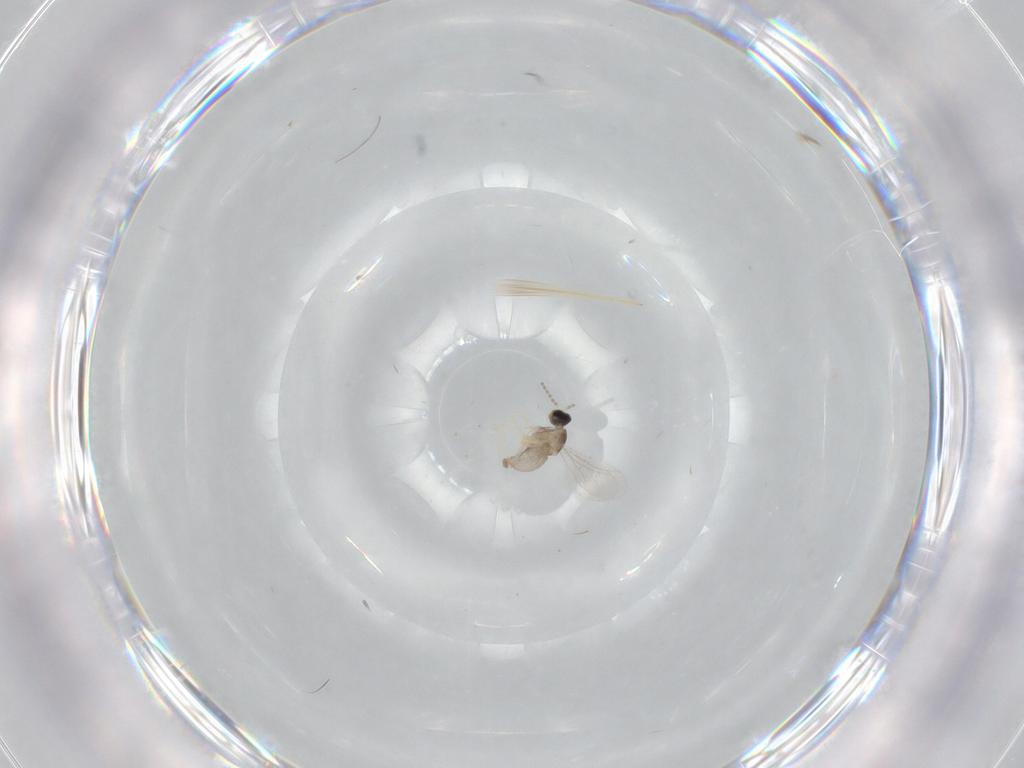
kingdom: Animalia
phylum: Arthropoda
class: Insecta
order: Diptera
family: Cecidomyiidae
